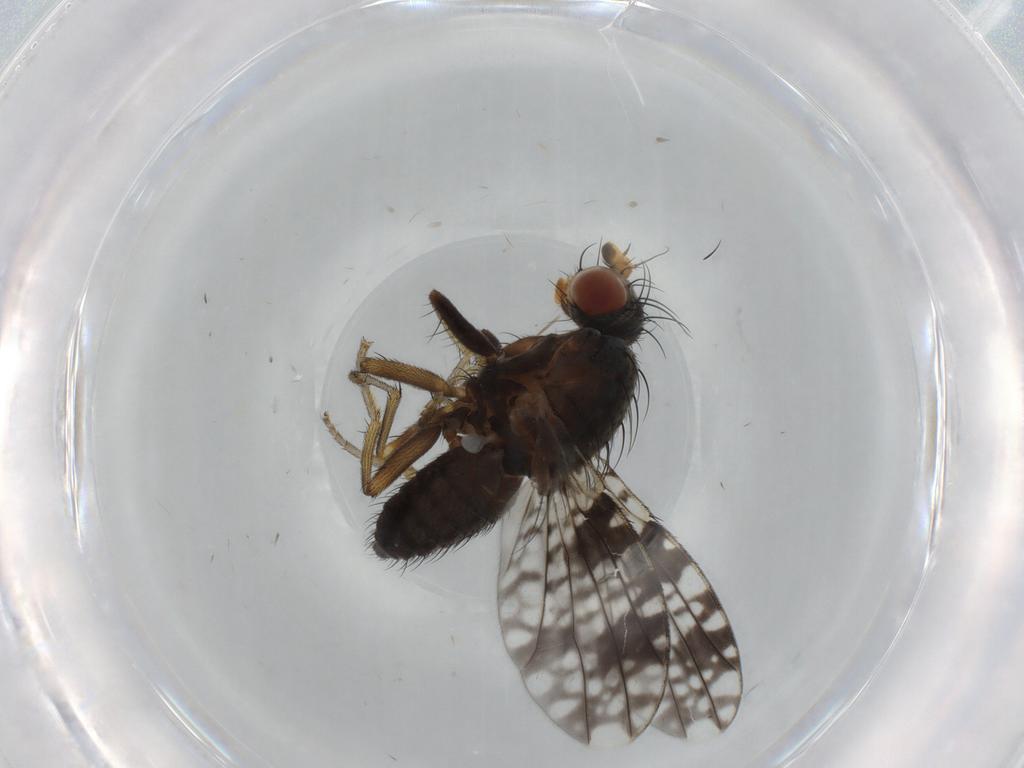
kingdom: Animalia
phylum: Arthropoda
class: Insecta
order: Diptera
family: Tephritidae
